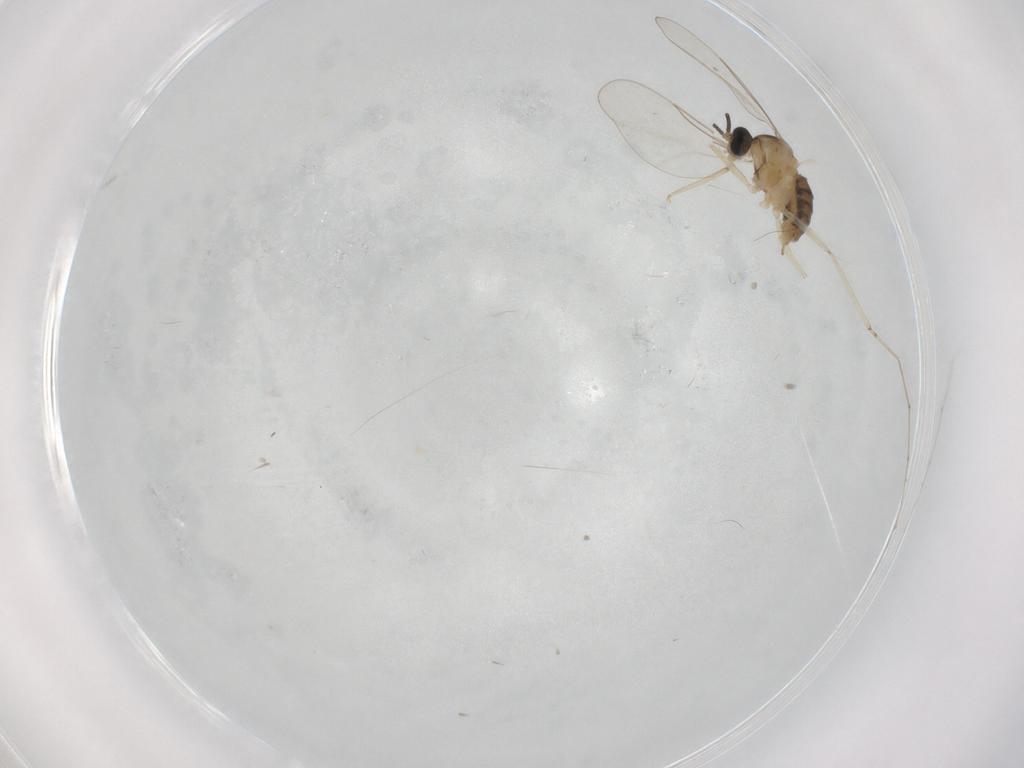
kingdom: Animalia
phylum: Arthropoda
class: Insecta
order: Diptera
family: Cecidomyiidae
